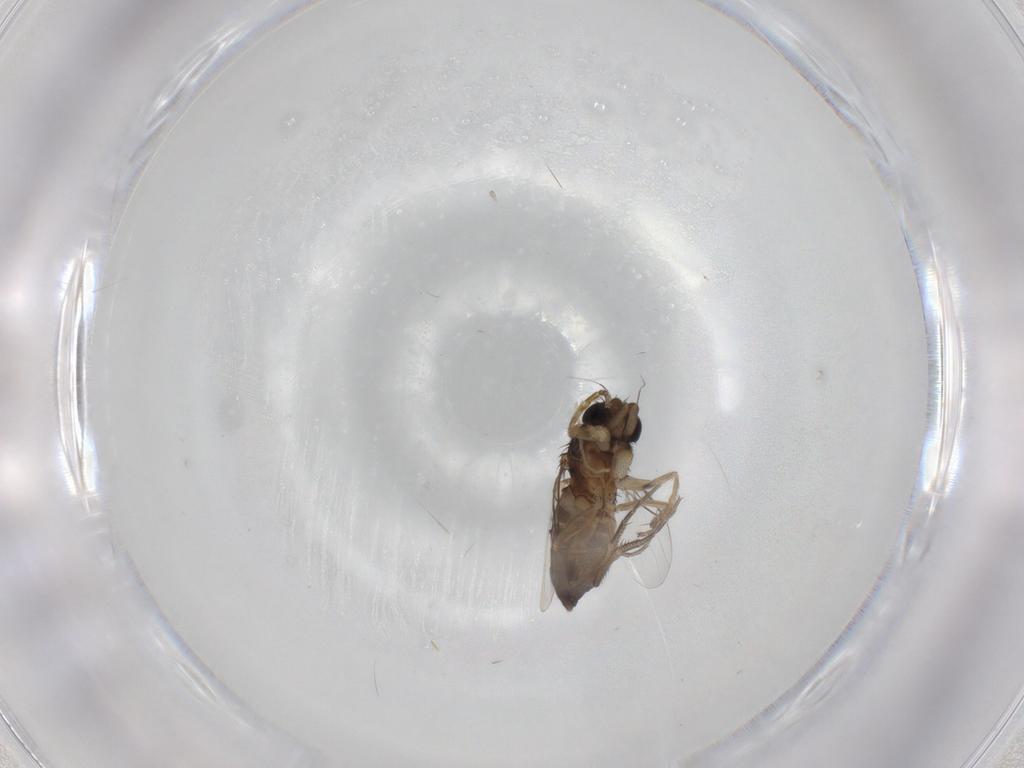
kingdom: Animalia
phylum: Arthropoda
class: Insecta
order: Diptera
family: Phoridae
